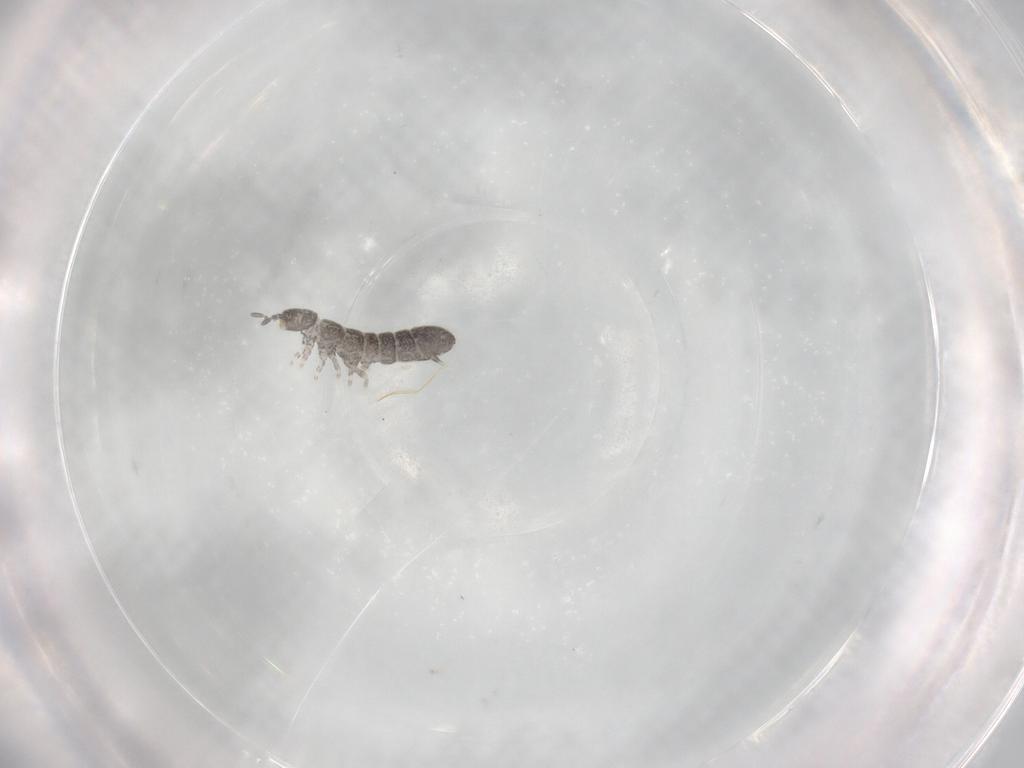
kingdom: Animalia
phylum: Arthropoda
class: Collembola
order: Entomobryomorpha
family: Isotomidae
